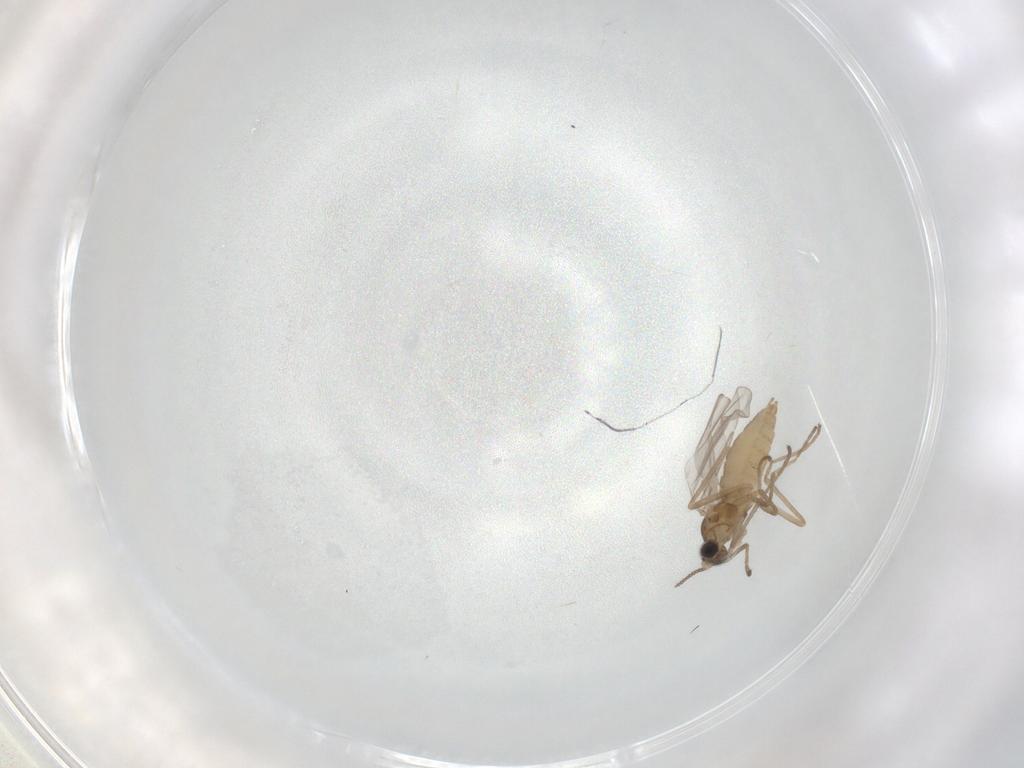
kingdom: Animalia
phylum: Arthropoda
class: Insecta
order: Diptera
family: Cecidomyiidae
